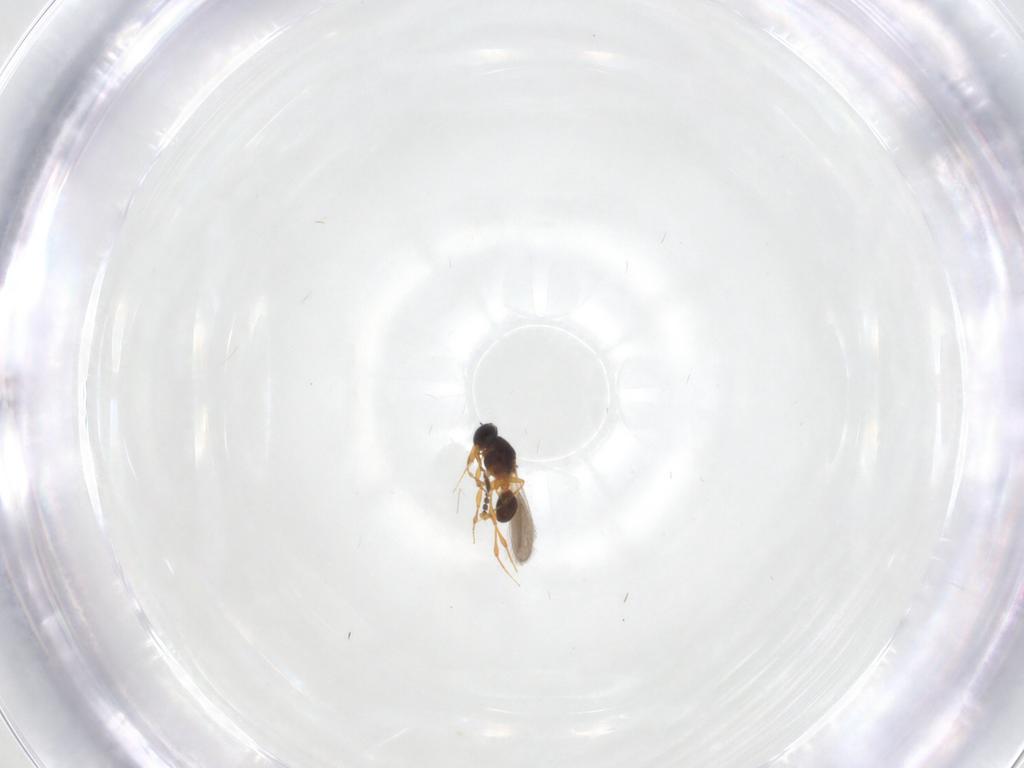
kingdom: Animalia
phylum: Arthropoda
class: Insecta
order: Hymenoptera
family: Platygastridae
